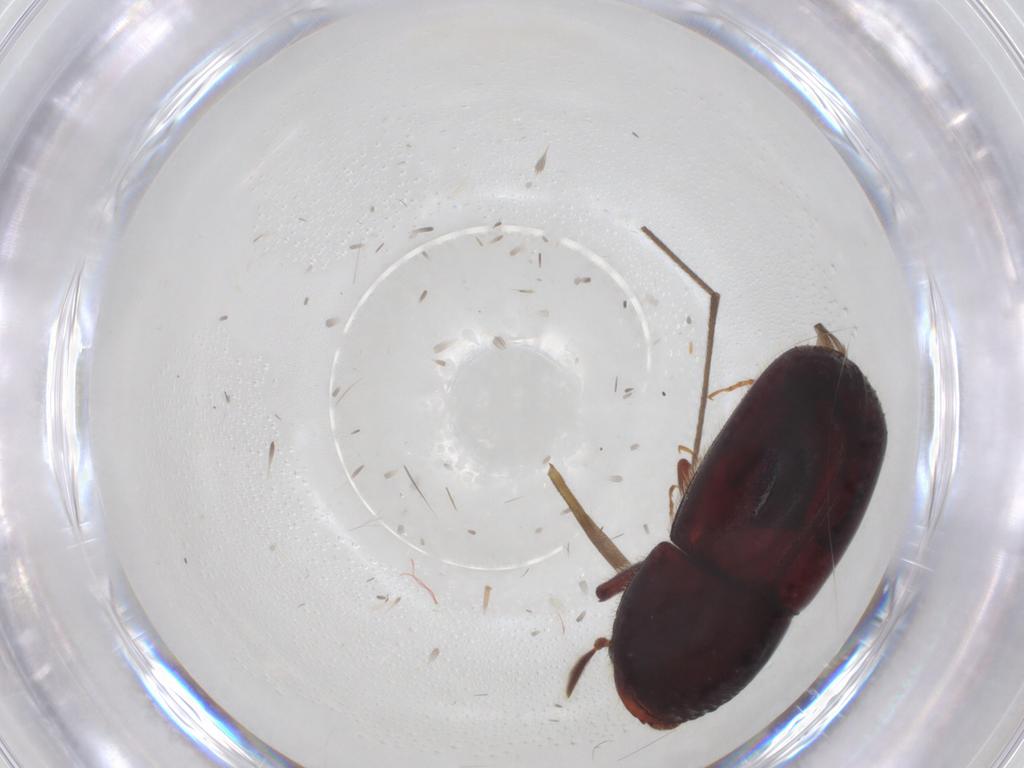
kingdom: Animalia
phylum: Arthropoda
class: Insecta
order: Coleoptera
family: Curculionidae
